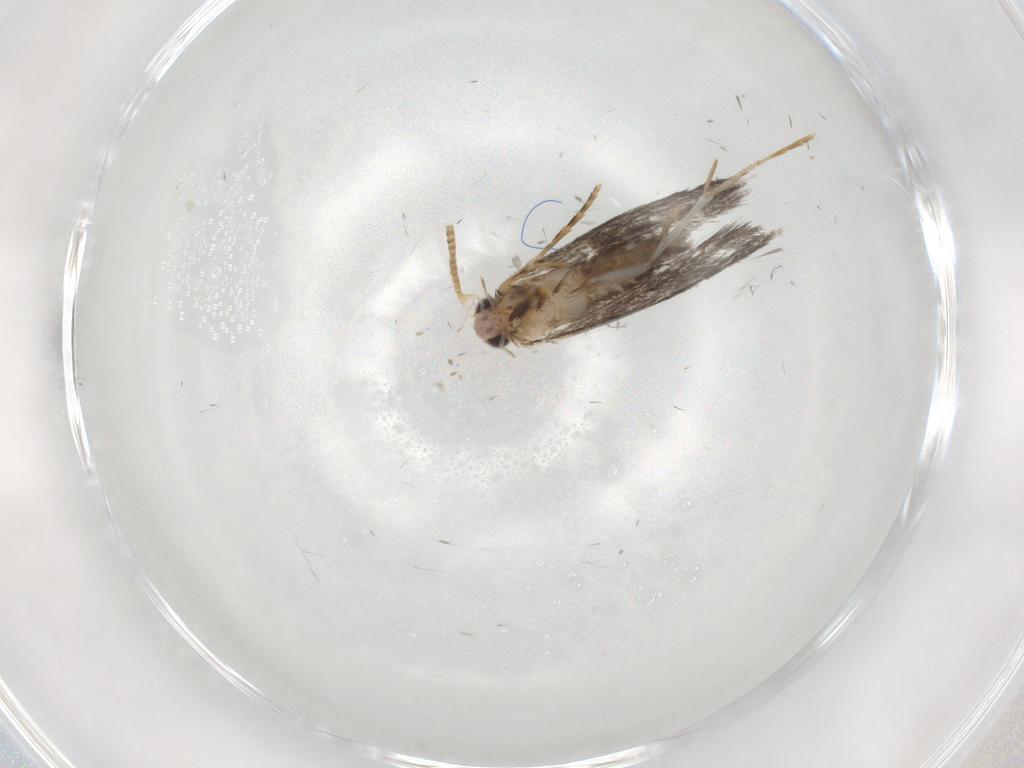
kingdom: Animalia
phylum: Arthropoda
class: Insecta
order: Lepidoptera
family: Tineidae
